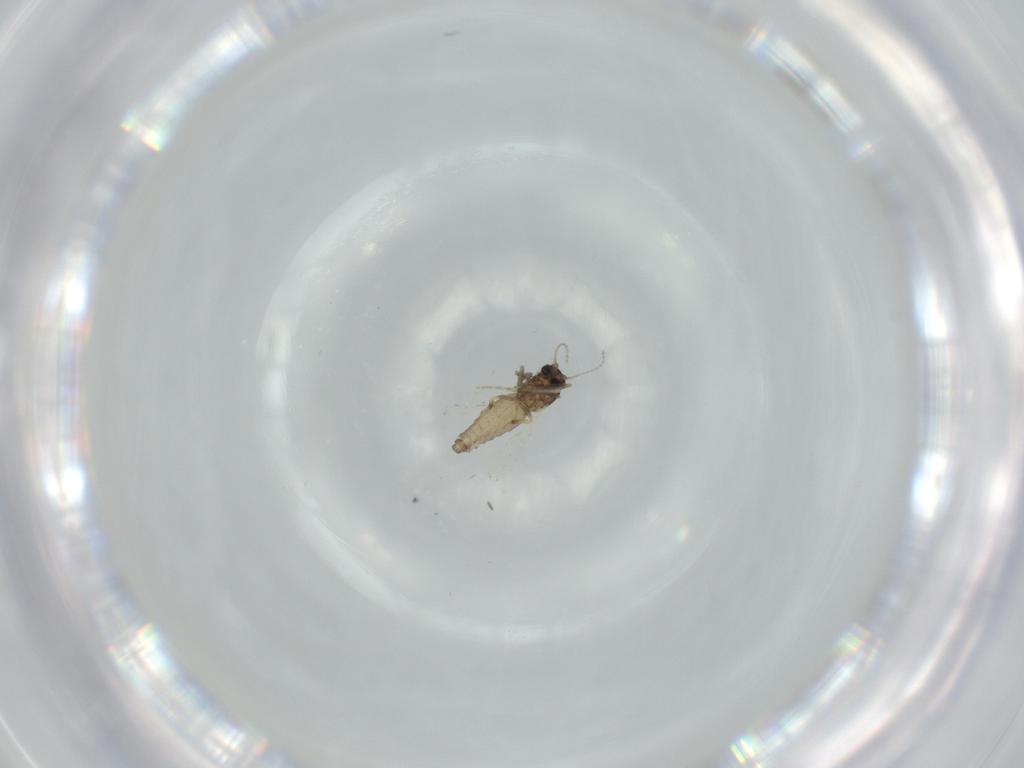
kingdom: Animalia
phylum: Arthropoda
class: Insecta
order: Diptera
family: Ceratopogonidae
